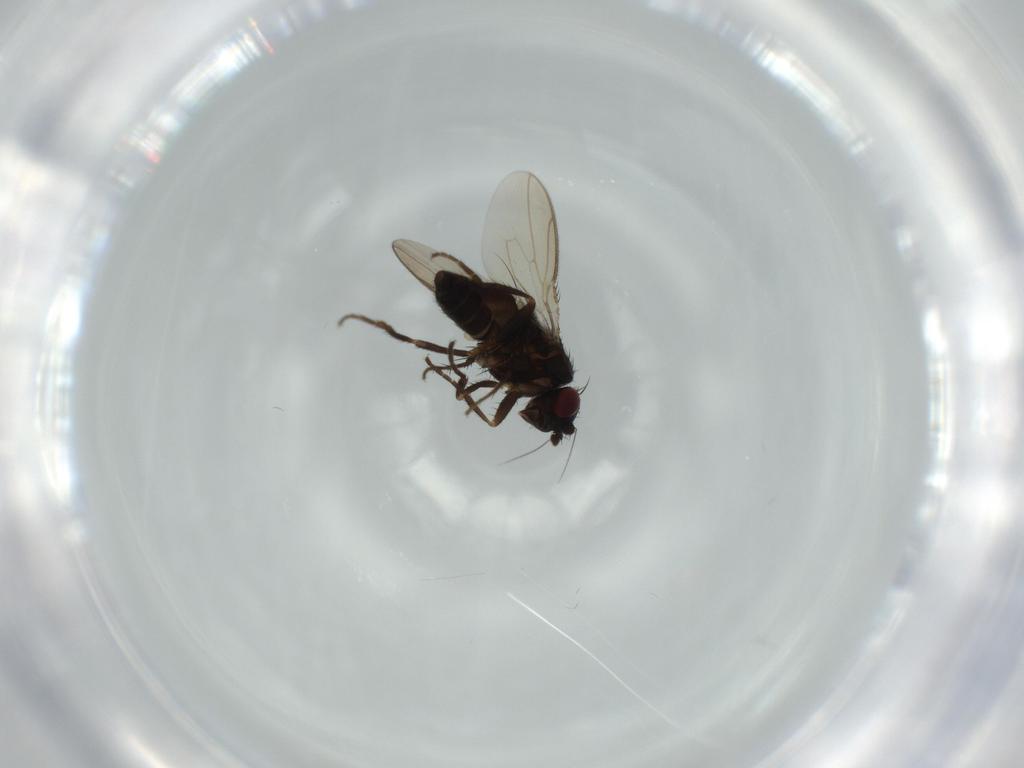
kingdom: Animalia
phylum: Arthropoda
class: Insecta
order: Diptera
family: Sphaeroceridae
